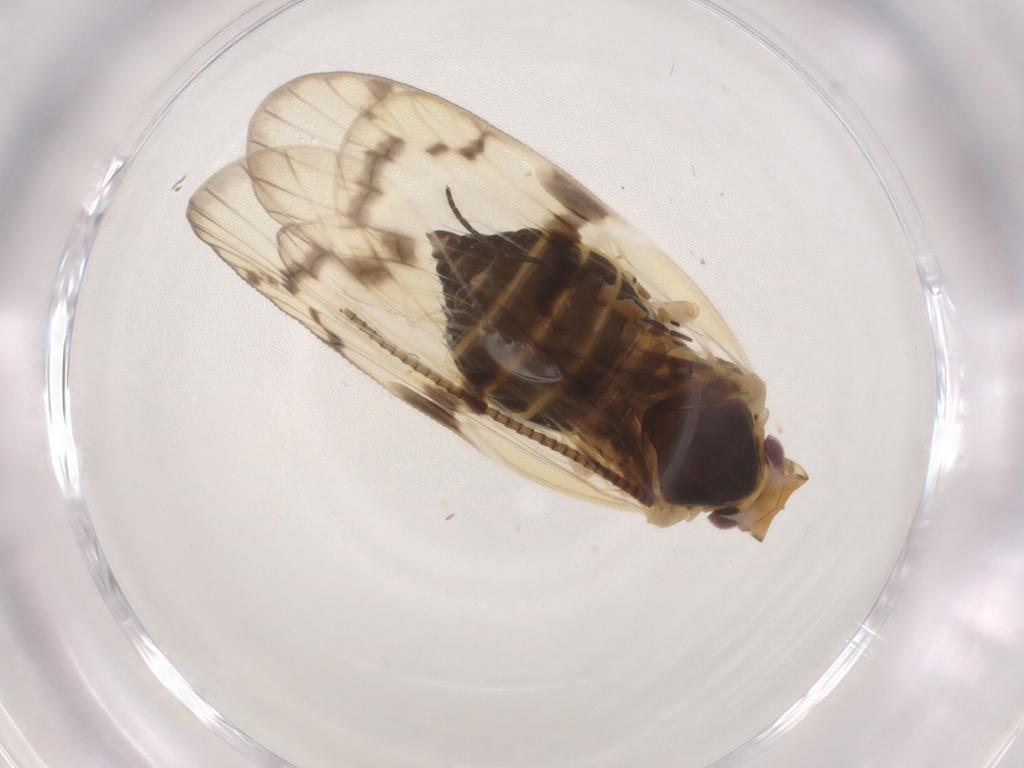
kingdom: Animalia
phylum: Arthropoda
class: Insecta
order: Hemiptera
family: Cixiidae
